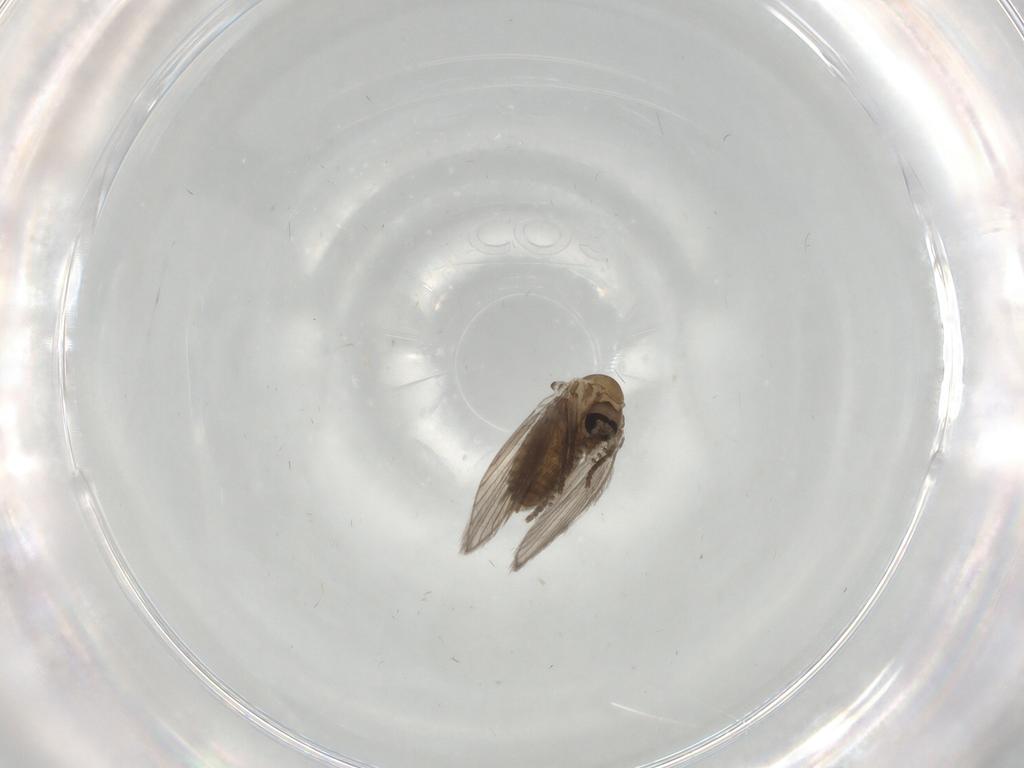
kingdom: Animalia
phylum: Arthropoda
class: Insecta
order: Diptera
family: Psychodidae
